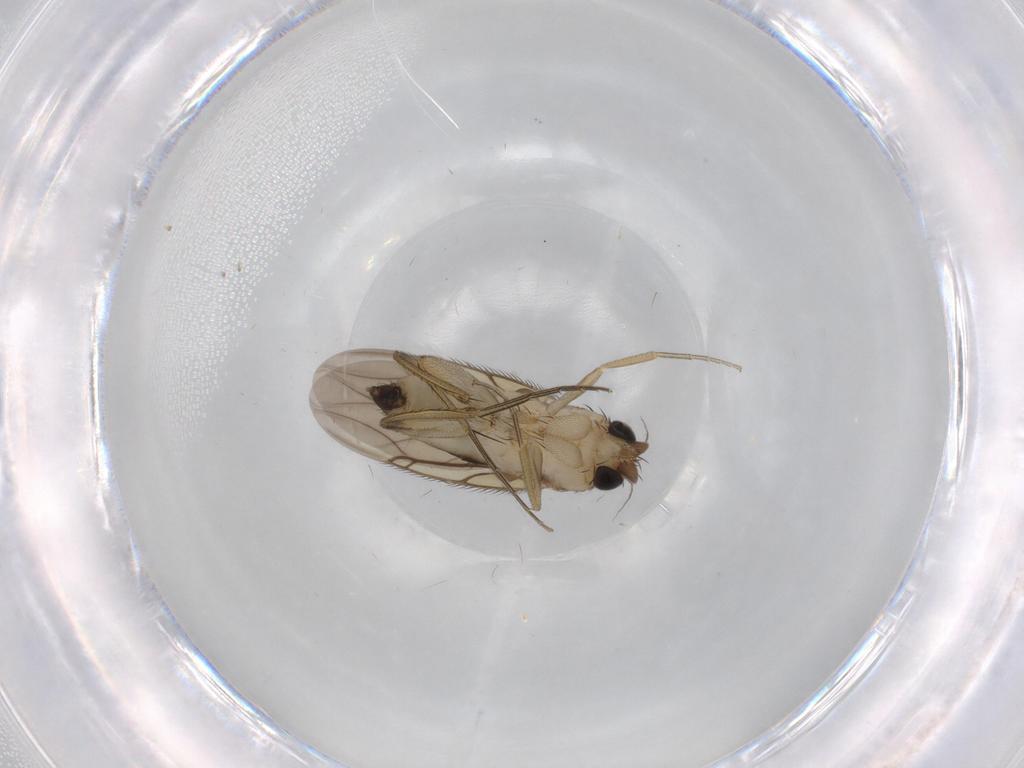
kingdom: Animalia
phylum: Arthropoda
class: Insecta
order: Diptera
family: Phoridae
